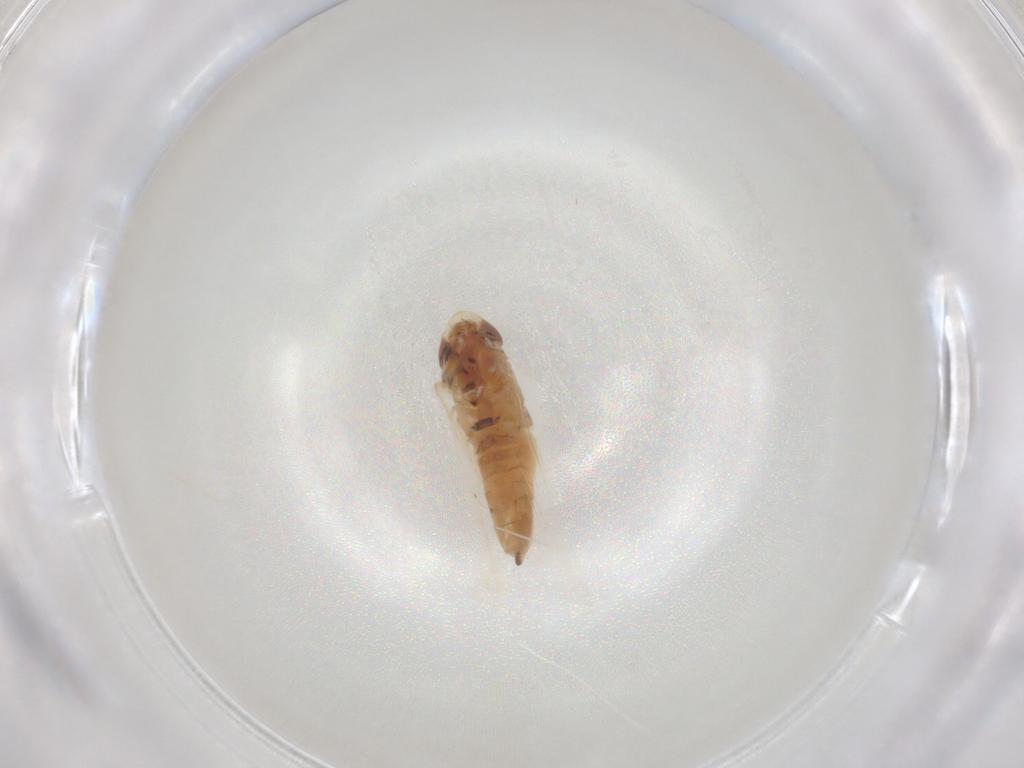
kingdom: Animalia
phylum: Arthropoda
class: Insecta
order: Hemiptera
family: Cicadellidae
